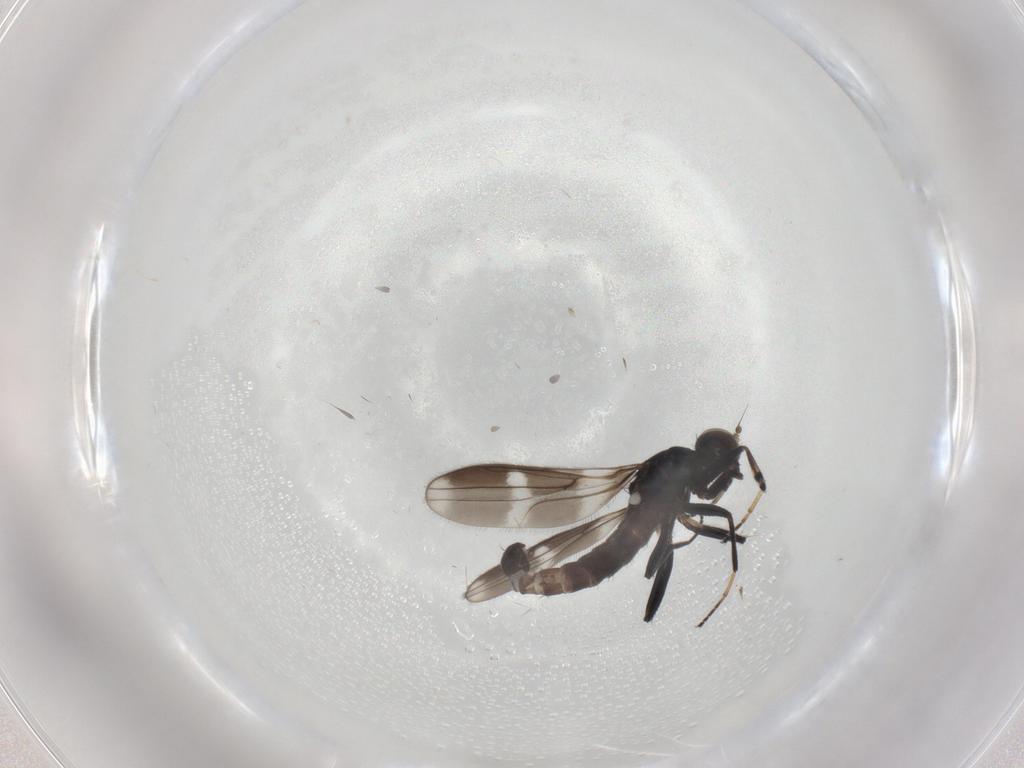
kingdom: Animalia
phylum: Arthropoda
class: Insecta
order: Diptera
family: Hybotidae
